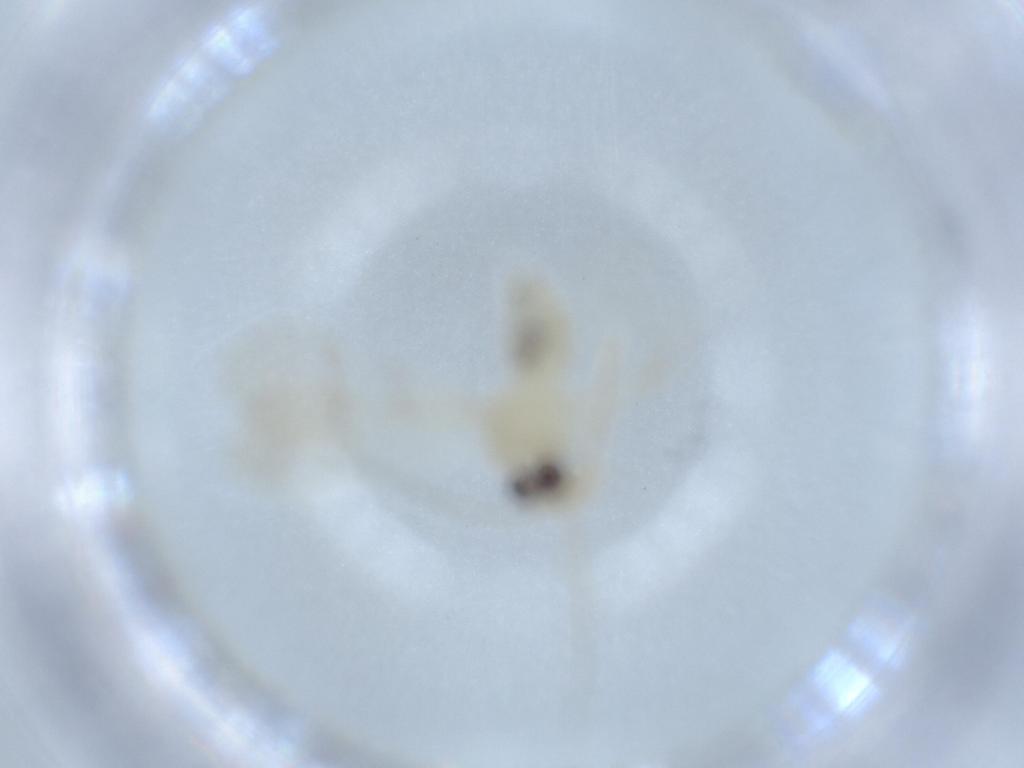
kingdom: Animalia
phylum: Arthropoda
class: Insecta
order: Psocodea
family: Caeciliusidae
